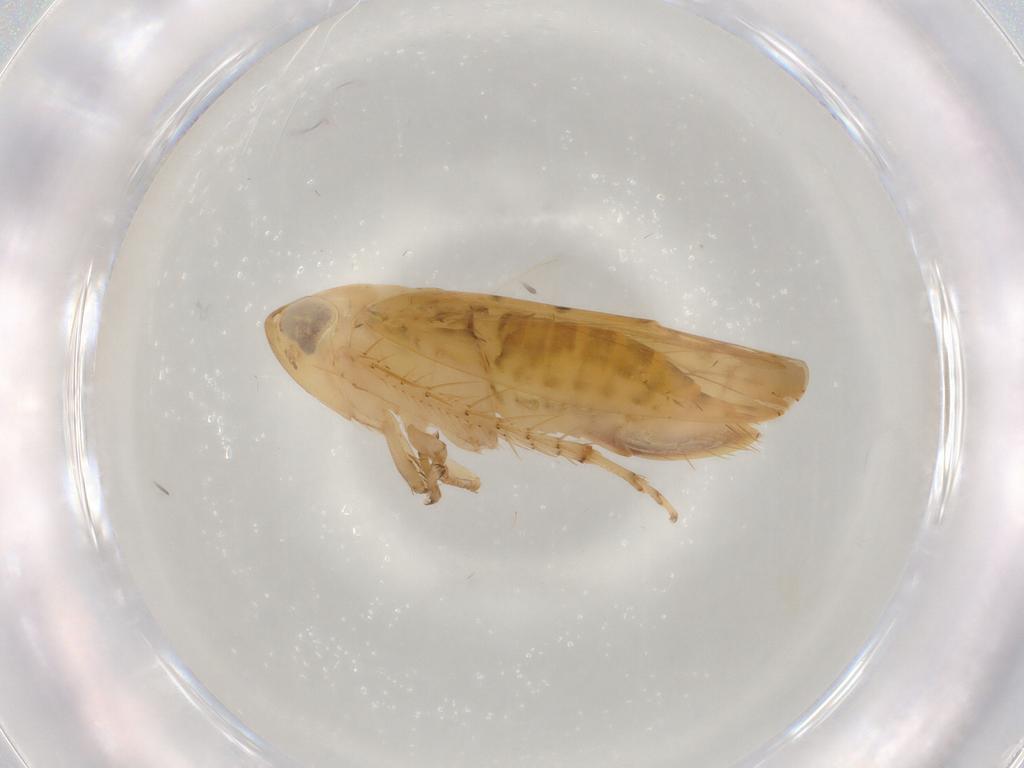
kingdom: Animalia
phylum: Arthropoda
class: Insecta
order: Hemiptera
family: Cicadellidae
